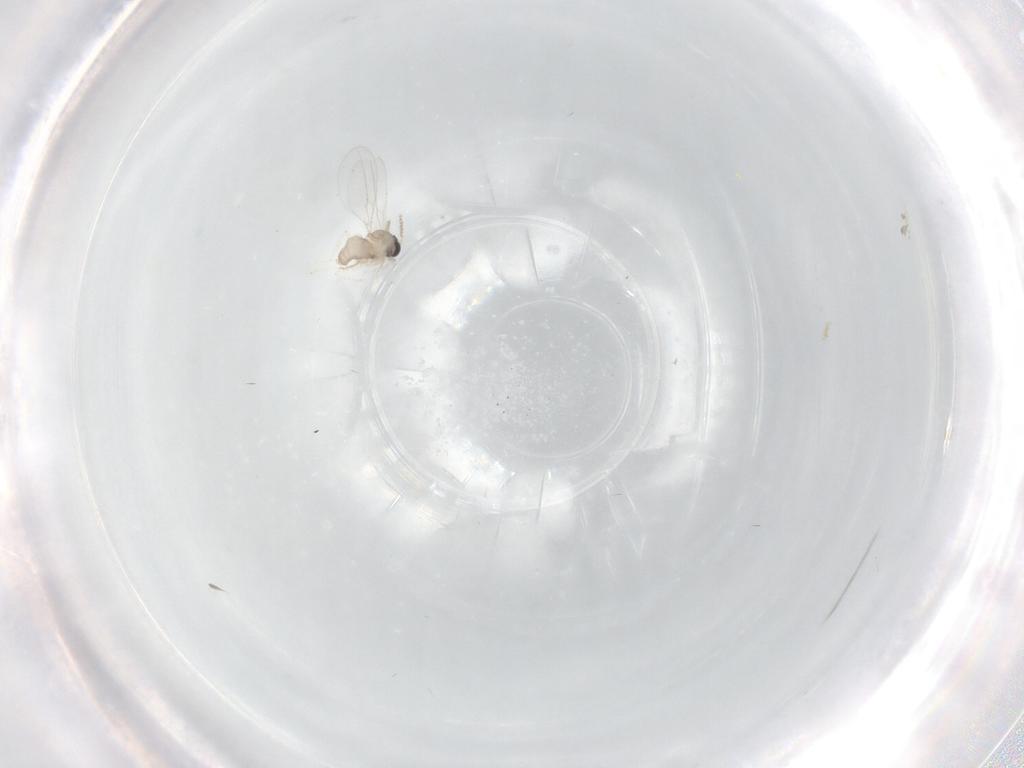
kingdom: Animalia
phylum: Arthropoda
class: Insecta
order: Diptera
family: Cecidomyiidae
